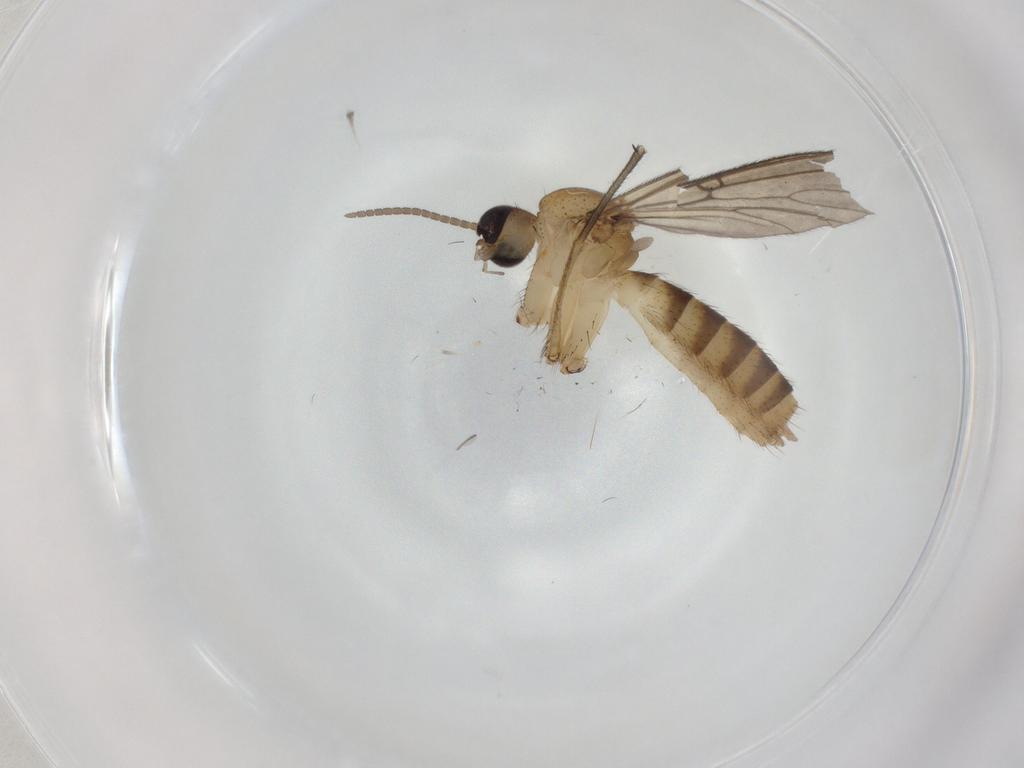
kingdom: Animalia
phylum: Arthropoda
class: Insecta
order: Diptera
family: Mycetophilidae
